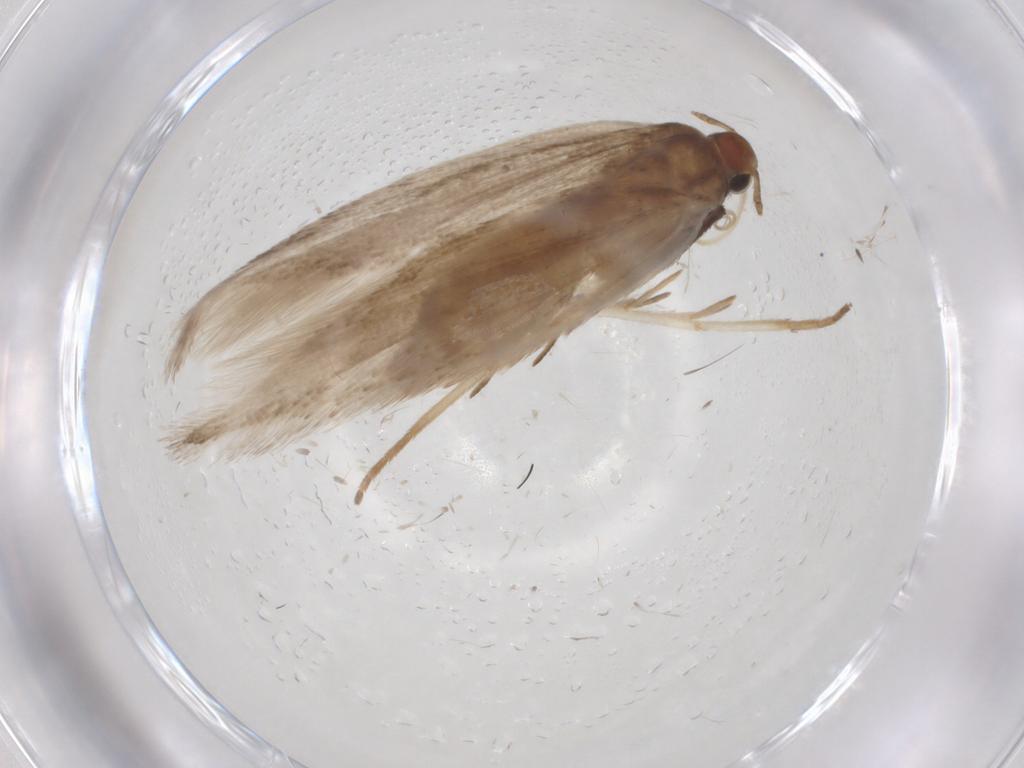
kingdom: Animalia
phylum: Arthropoda
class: Insecta
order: Lepidoptera
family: Gelechiidae
